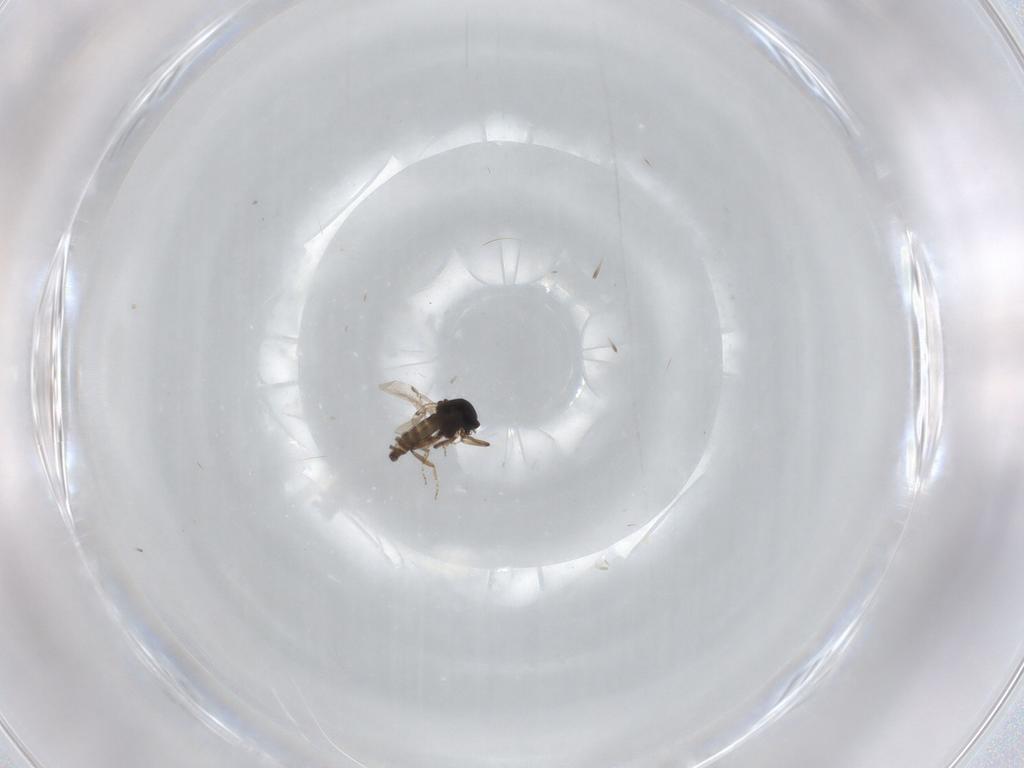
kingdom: Animalia
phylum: Arthropoda
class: Insecta
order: Diptera
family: Ceratopogonidae
